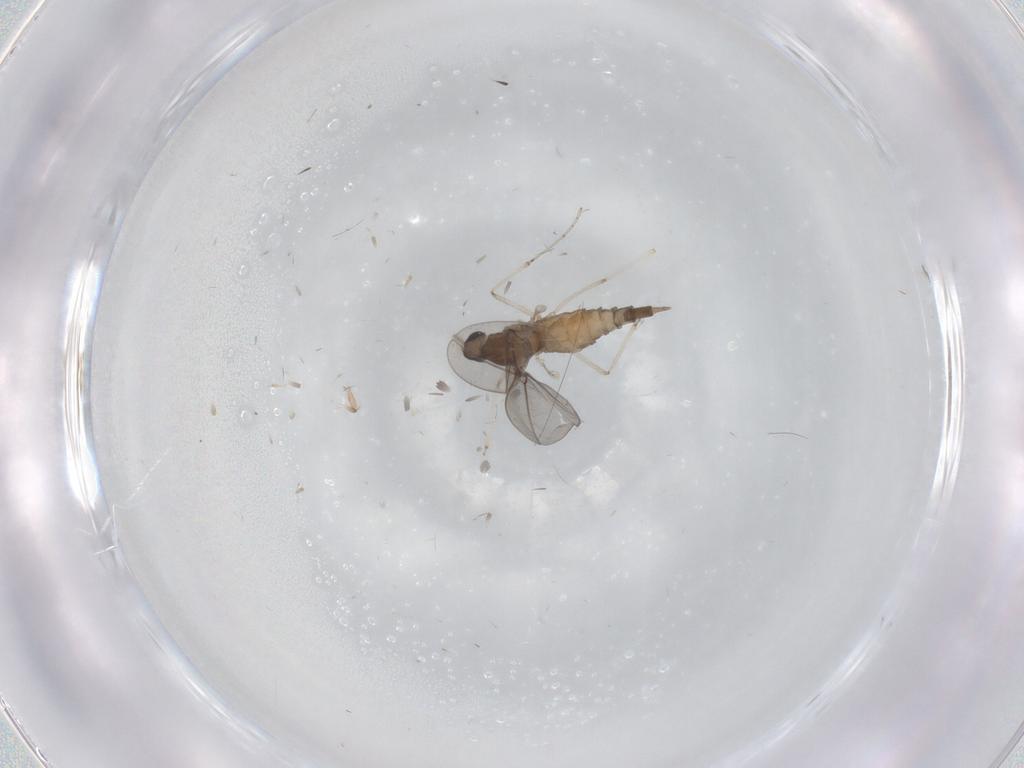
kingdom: Animalia
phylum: Arthropoda
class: Insecta
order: Diptera
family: Cecidomyiidae
